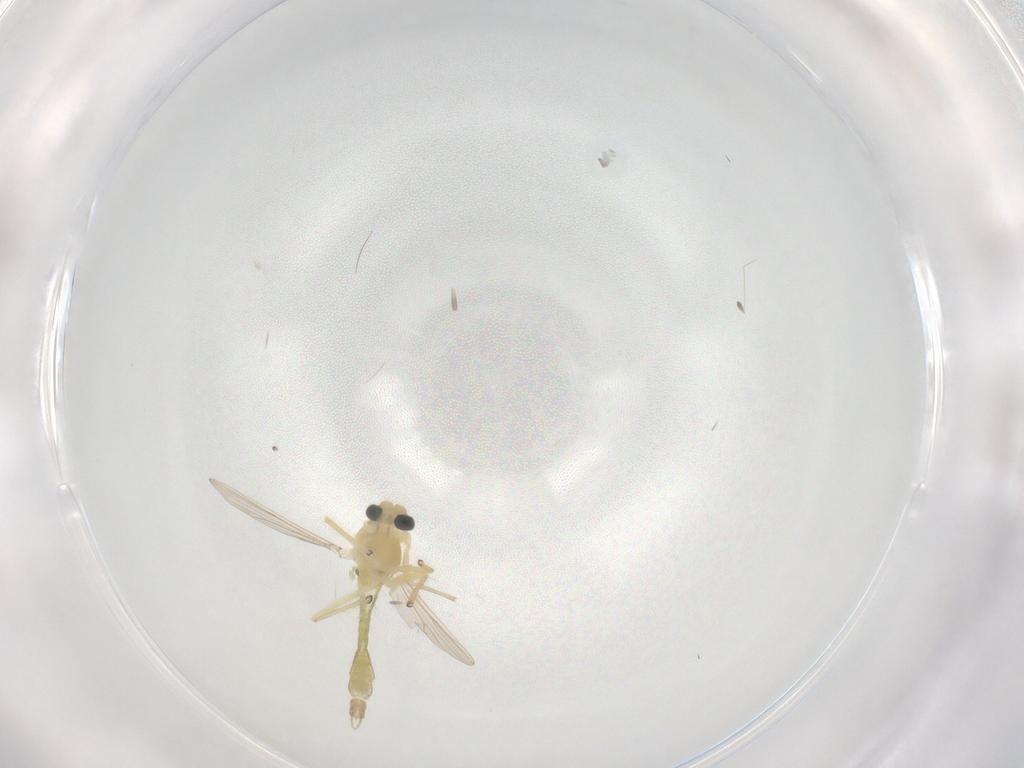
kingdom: Animalia
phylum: Arthropoda
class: Insecta
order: Diptera
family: Chironomidae
